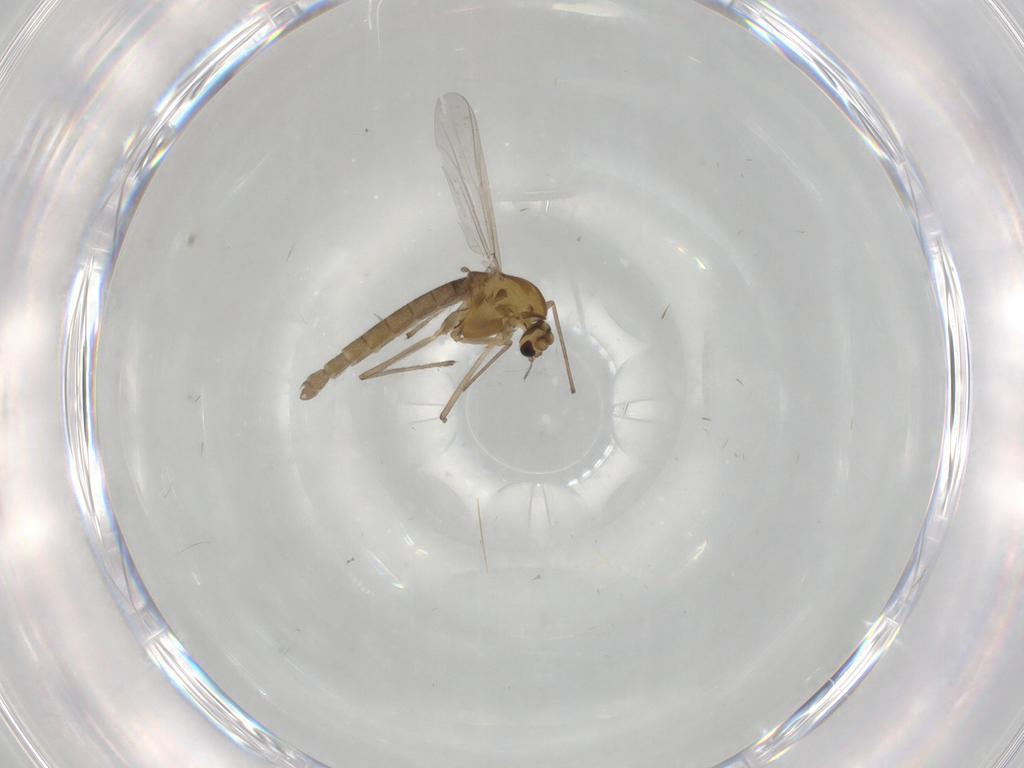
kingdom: Animalia
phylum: Arthropoda
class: Insecta
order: Diptera
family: Chironomidae
